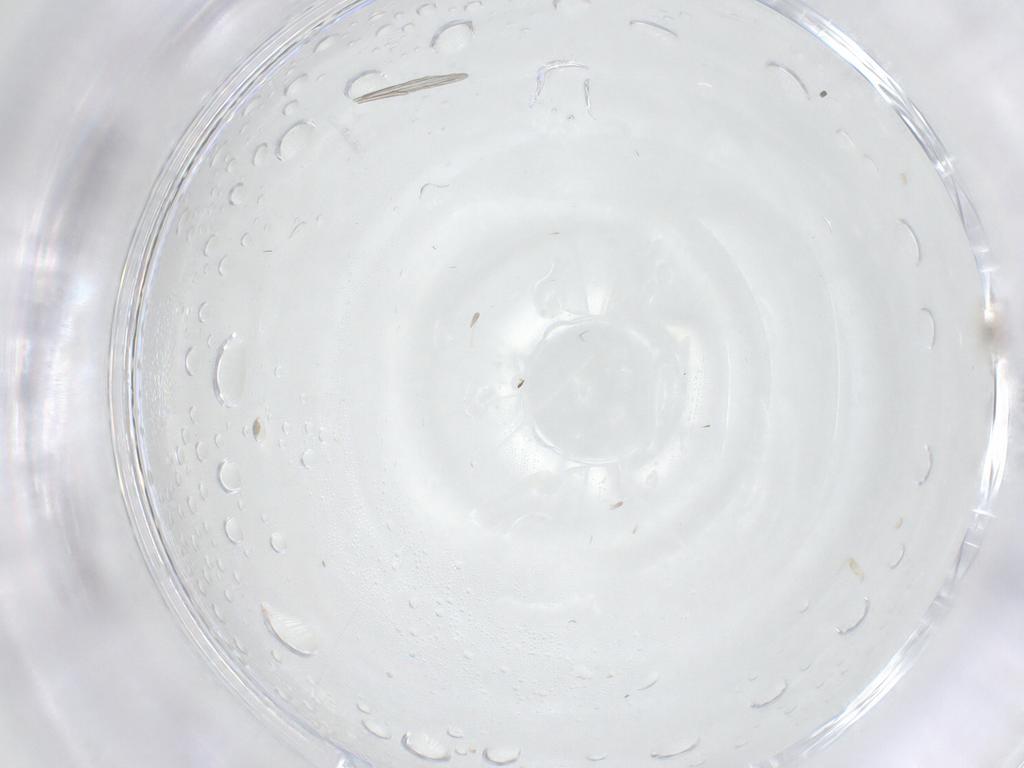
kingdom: Animalia
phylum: Arthropoda
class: Insecta
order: Diptera
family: Cecidomyiidae
